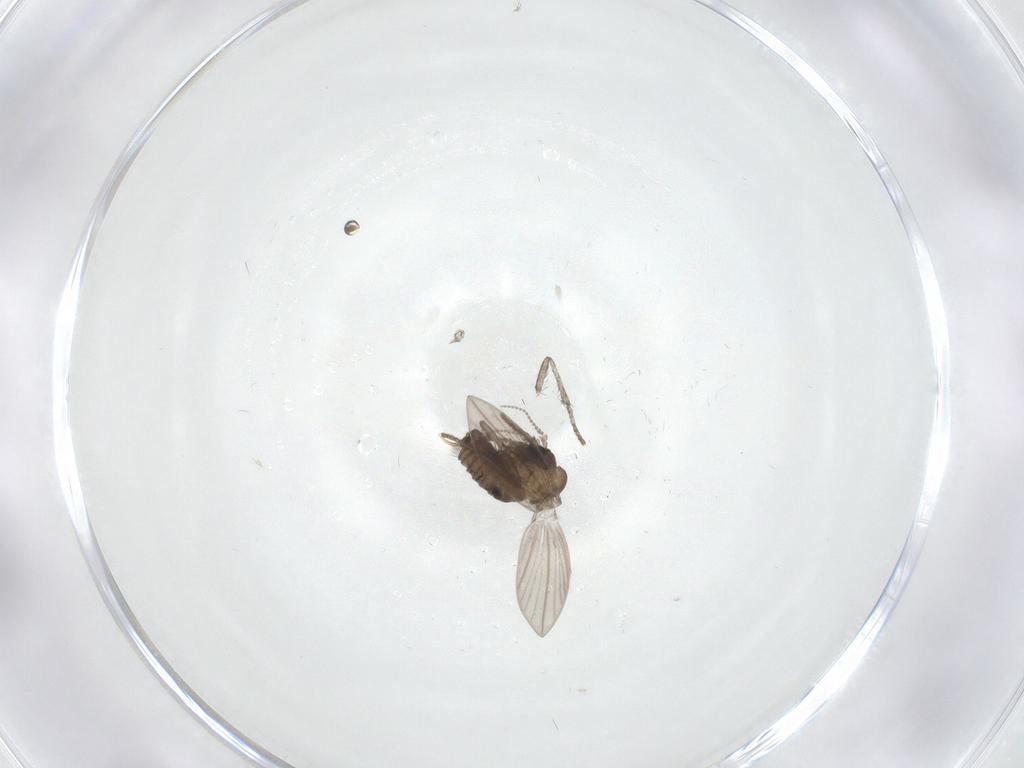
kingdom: Animalia
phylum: Arthropoda
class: Insecta
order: Diptera
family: Psychodidae
